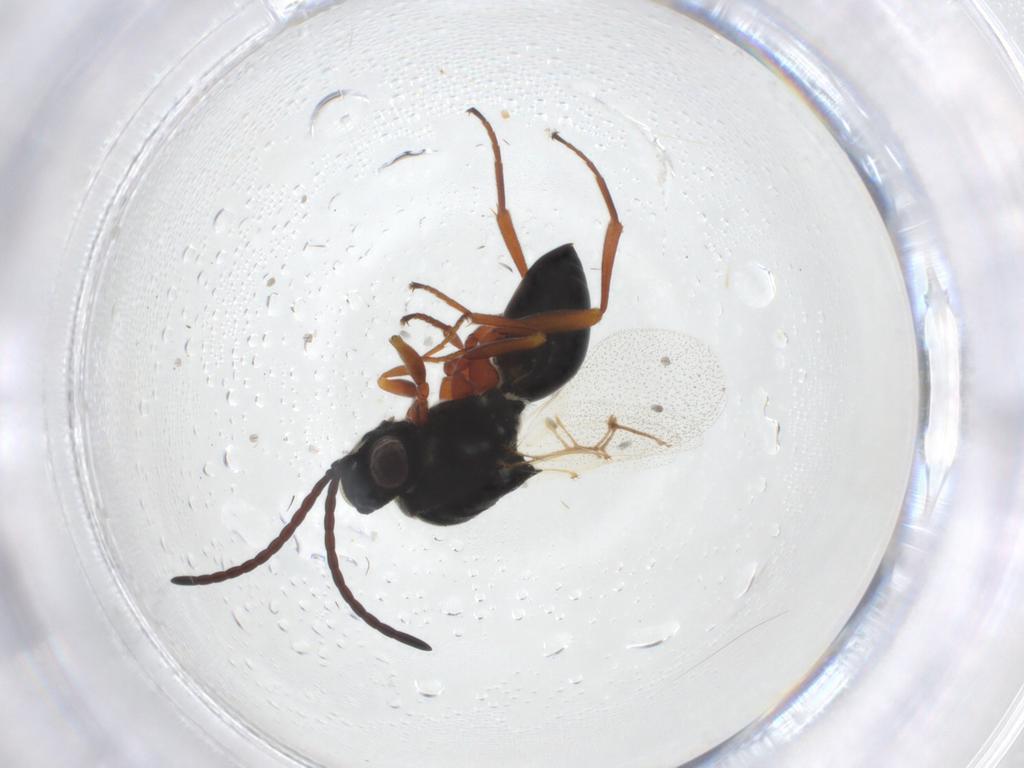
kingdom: Animalia
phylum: Arthropoda
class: Insecta
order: Hymenoptera
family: Figitidae
